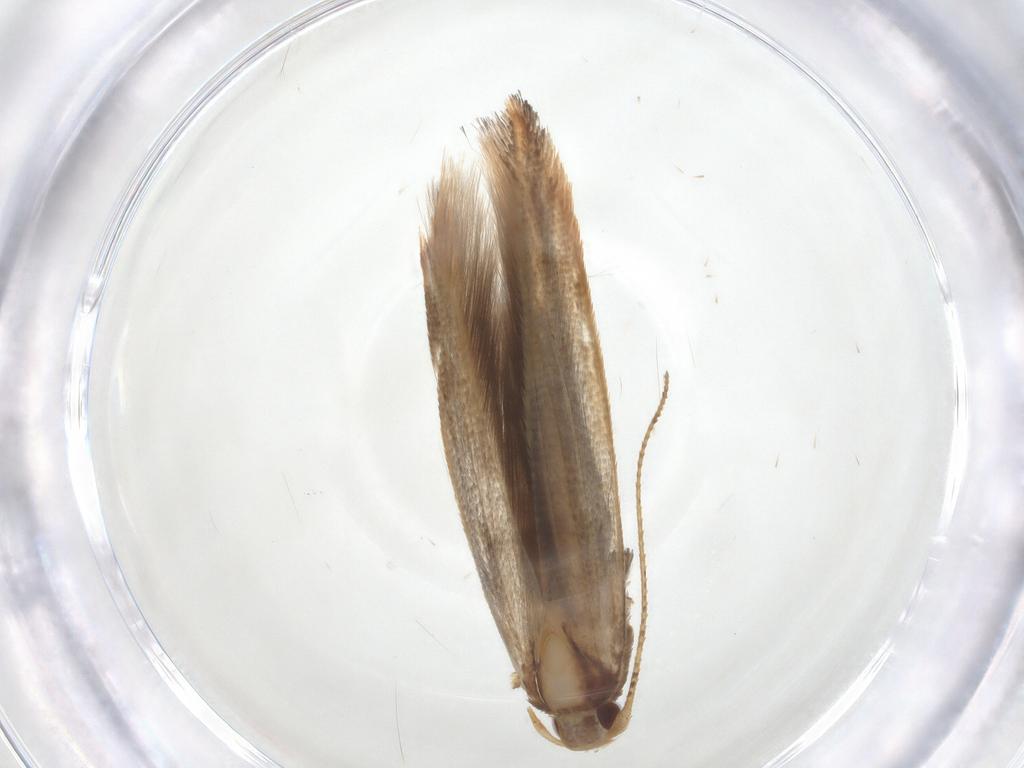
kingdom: Animalia
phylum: Arthropoda
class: Insecta
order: Lepidoptera
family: Cosmopterigidae
